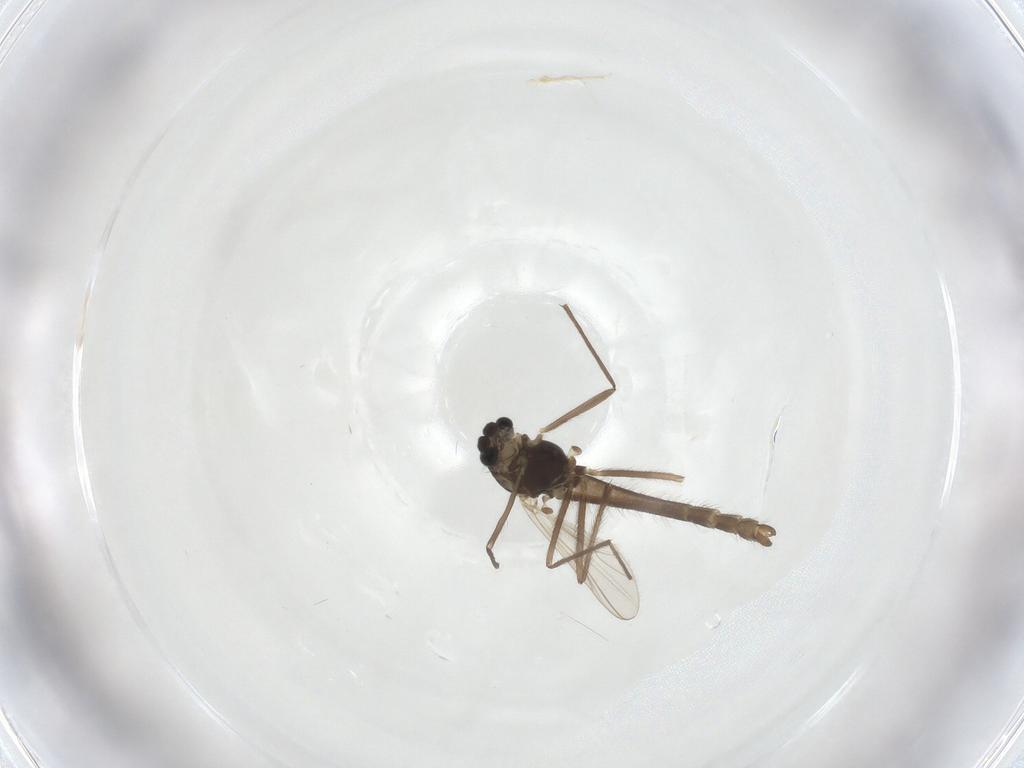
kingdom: Animalia
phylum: Arthropoda
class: Insecta
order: Diptera
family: Chironomidae
